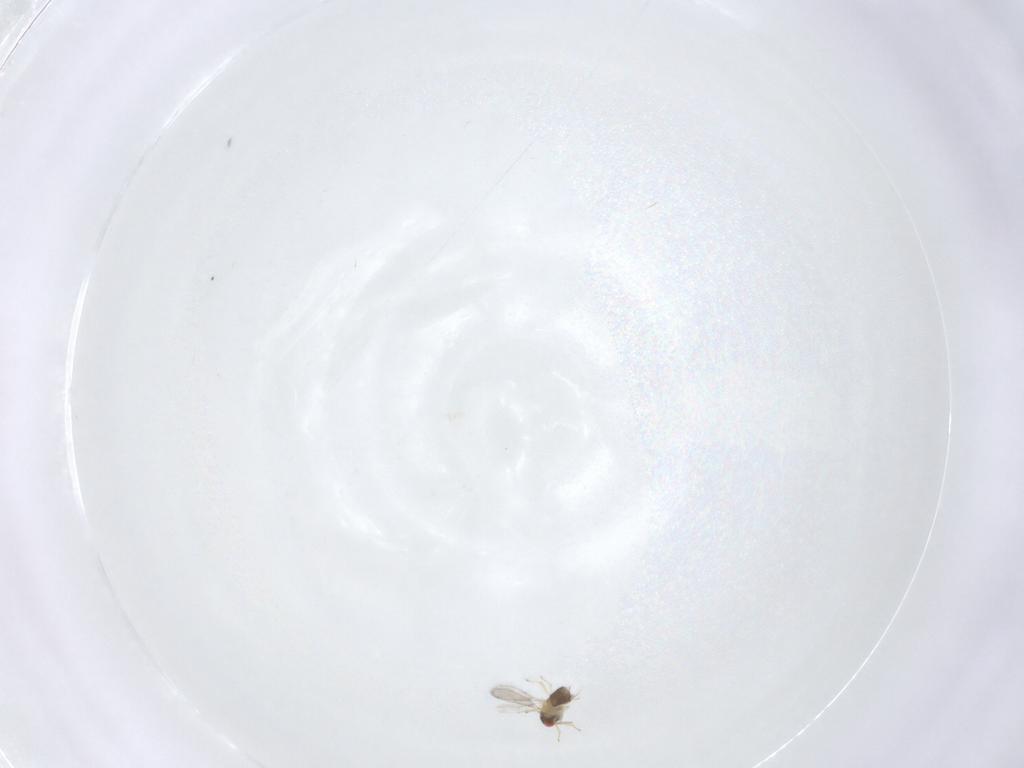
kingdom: Animalia
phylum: Arthropoda
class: Insecta
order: Hymenoptera
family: Aphelinidae
